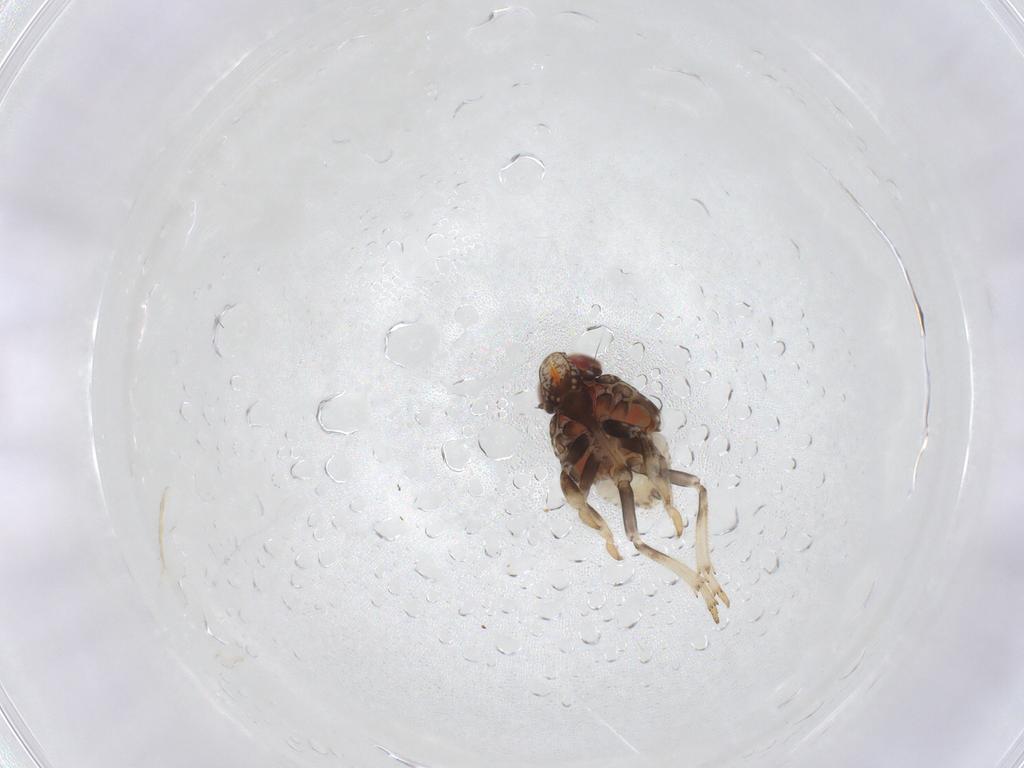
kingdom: Animalia
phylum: Arthropoda
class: Insecta
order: Hemiptera
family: Issidae
